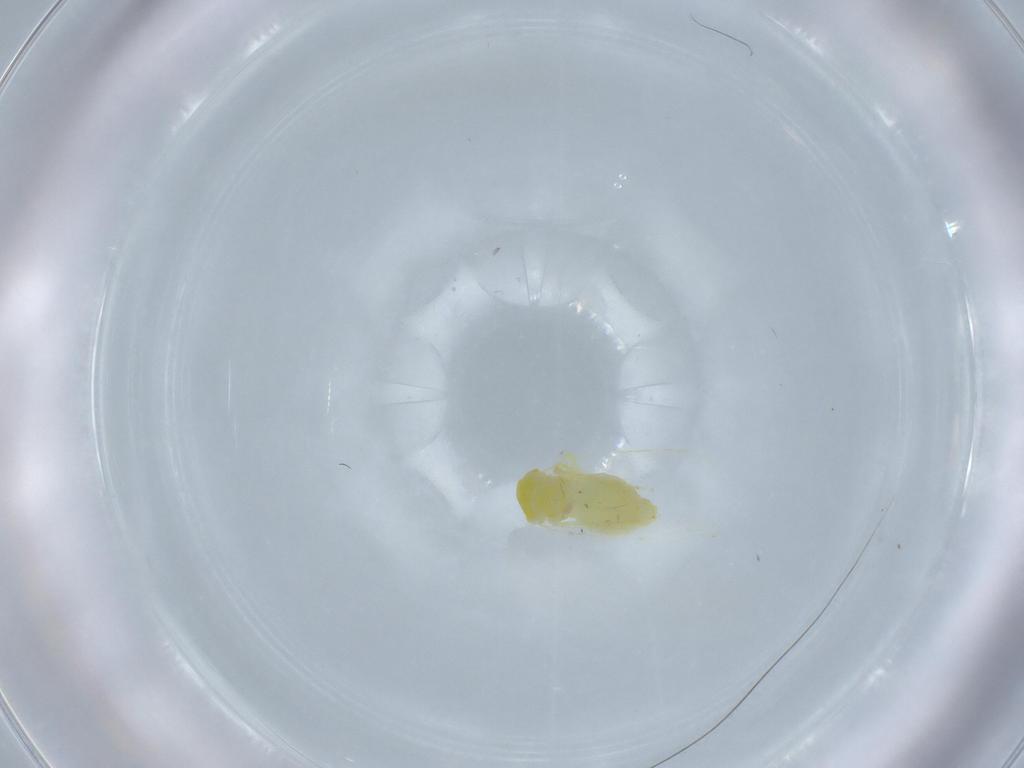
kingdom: Animalia
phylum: Arthropoda
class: Insecta
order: Hemiptera
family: Aleyrodidae
